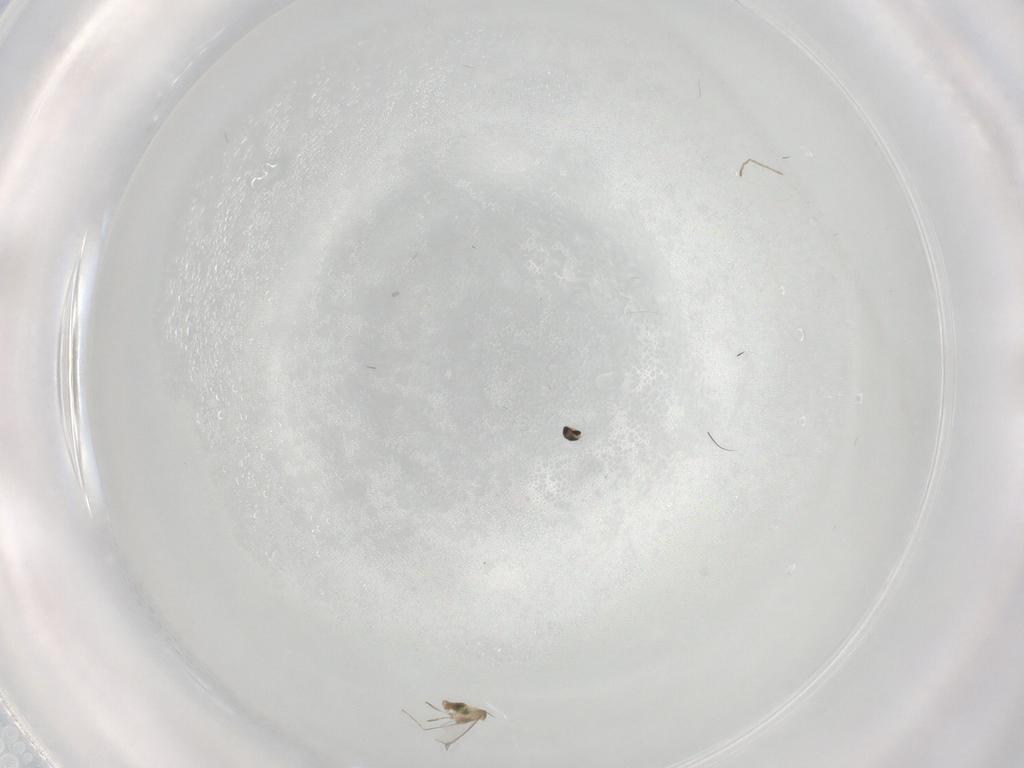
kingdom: Animalia
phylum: Arthropoda
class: Insecta
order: Diptera
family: Cecidomyiidae
